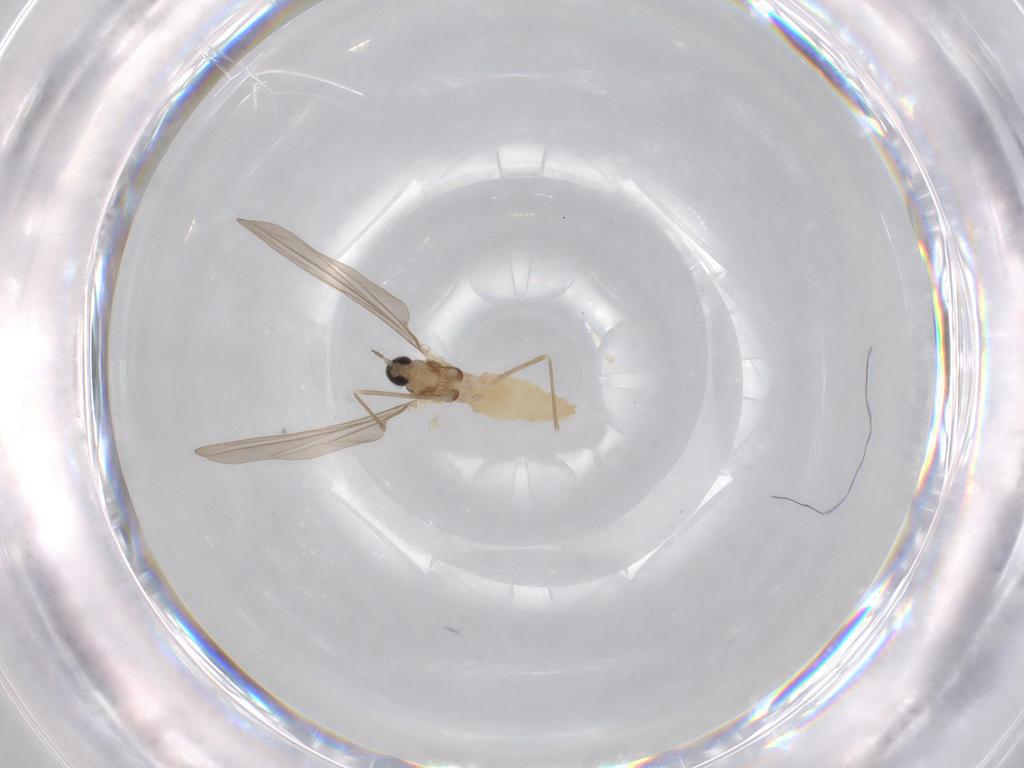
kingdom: Animalia
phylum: Arthropoda
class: Insecta
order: Diptera
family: Cecidomyiidae
